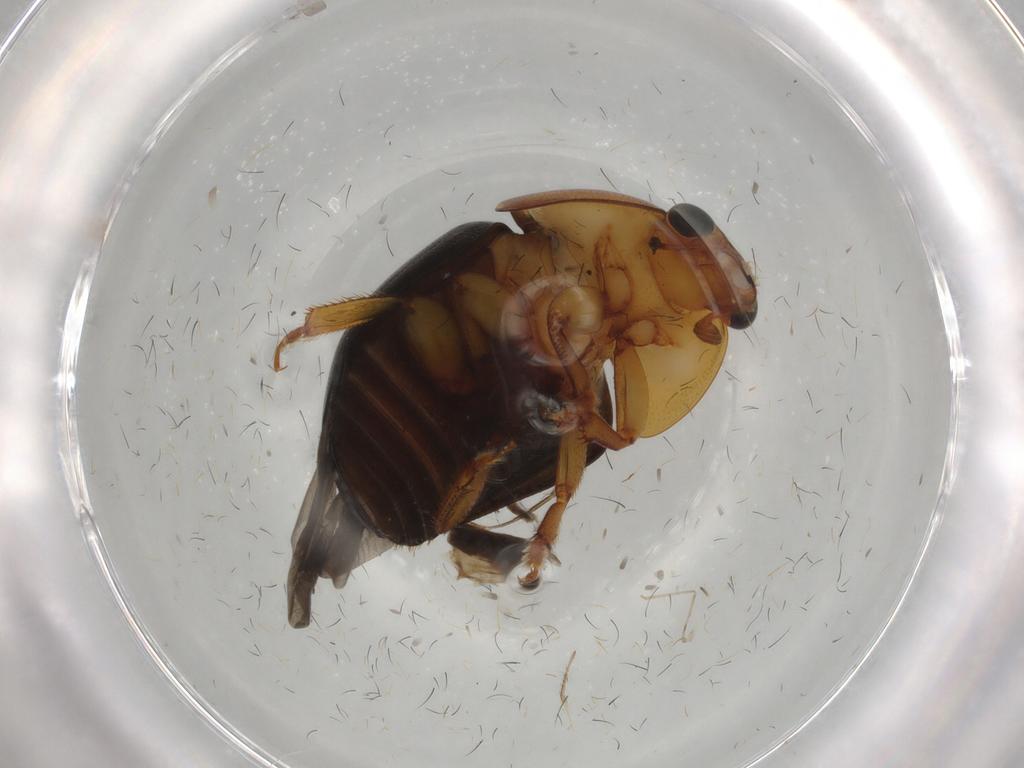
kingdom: Animalia
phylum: Arthropoda
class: Insecta
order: Coleoptera
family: Nitidulidae
